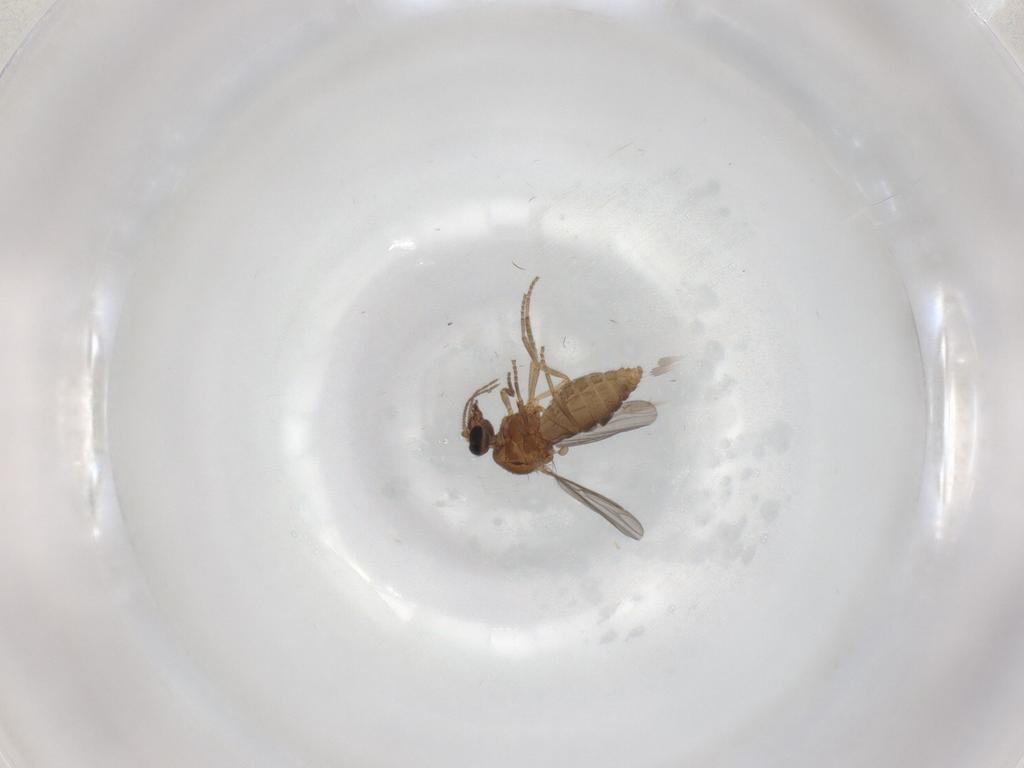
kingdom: Animalia
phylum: Arthropoda
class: Insecta
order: Diptera
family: Ceratopogonidae
